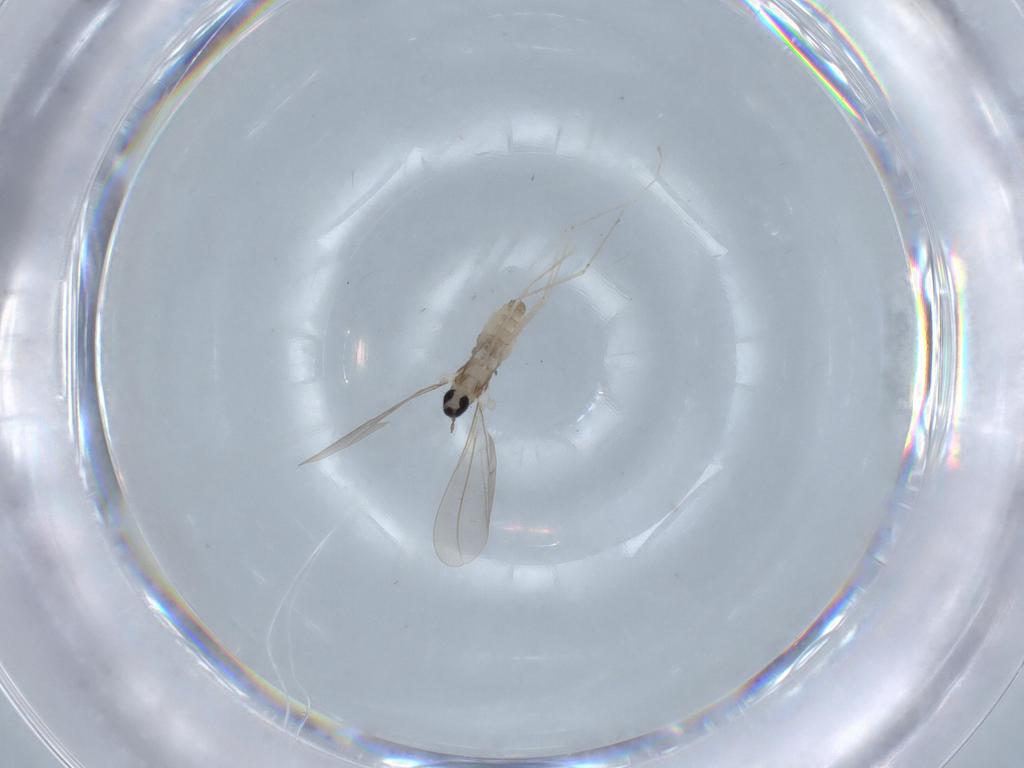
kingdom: Animalia
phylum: Arthropoda
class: Insecta
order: Diptera
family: Cecidomyiidae
